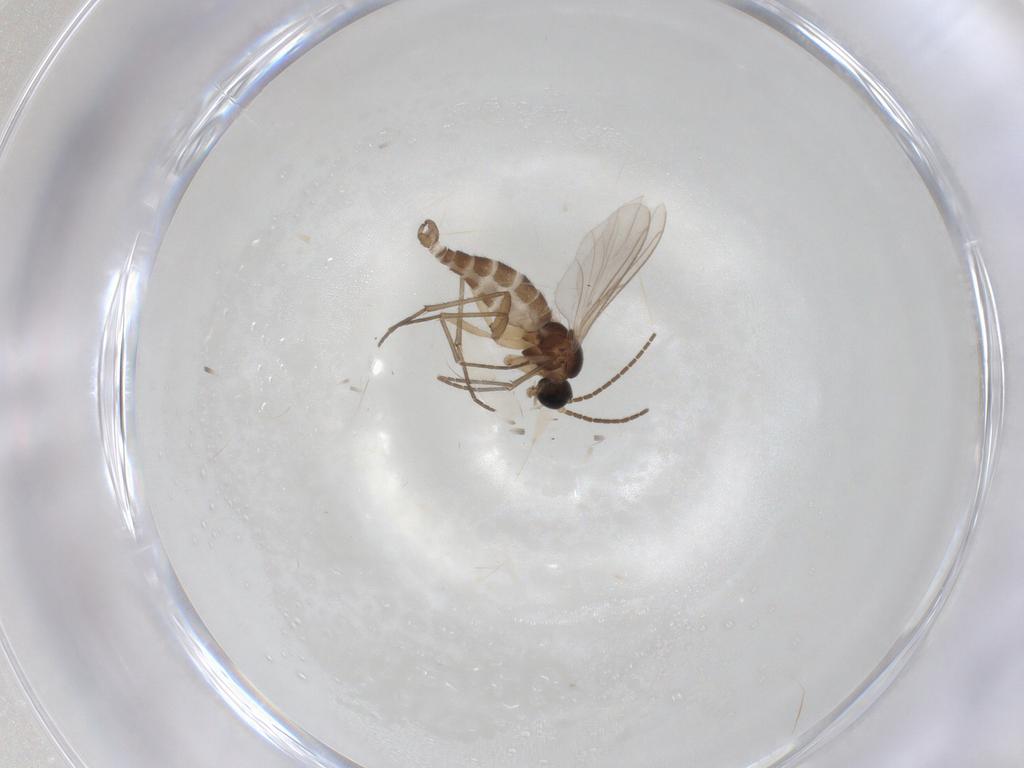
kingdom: Animalia
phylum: Arthropoda
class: Insecta
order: Diptera
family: Sciaridae
